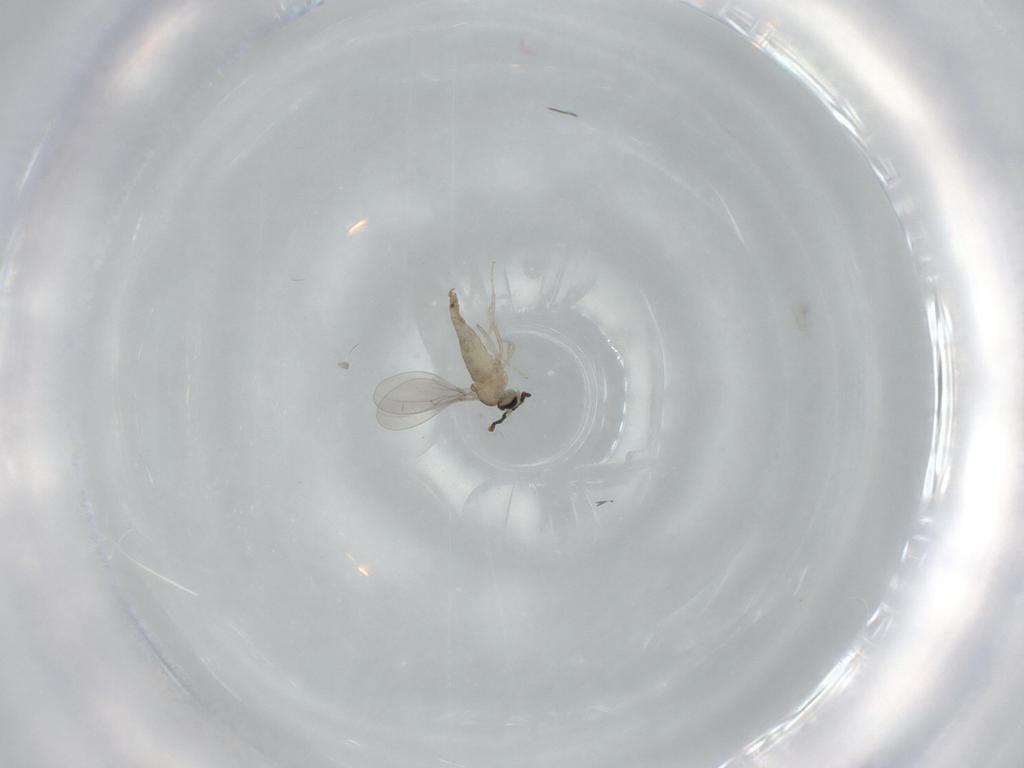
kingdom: Animalia
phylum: Arthropoda
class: Insecta
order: Diptera
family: Cecidomyiidae
